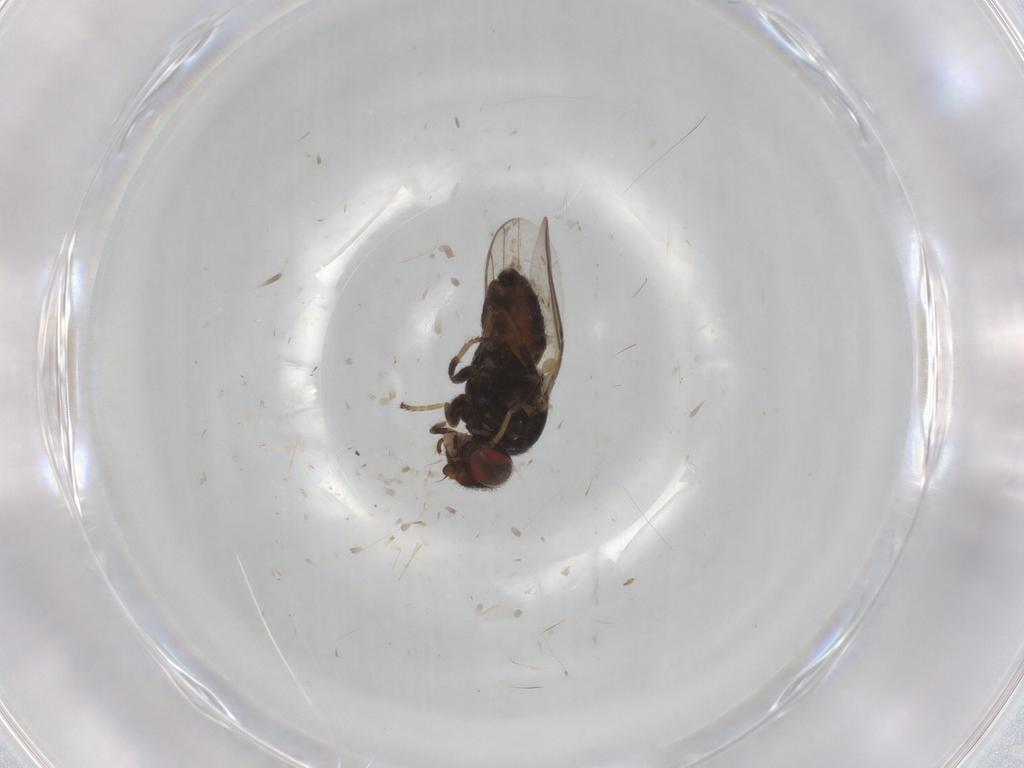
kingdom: Animalia
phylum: Arthropoda
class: Insecta
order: Diptera
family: Chloropidae
